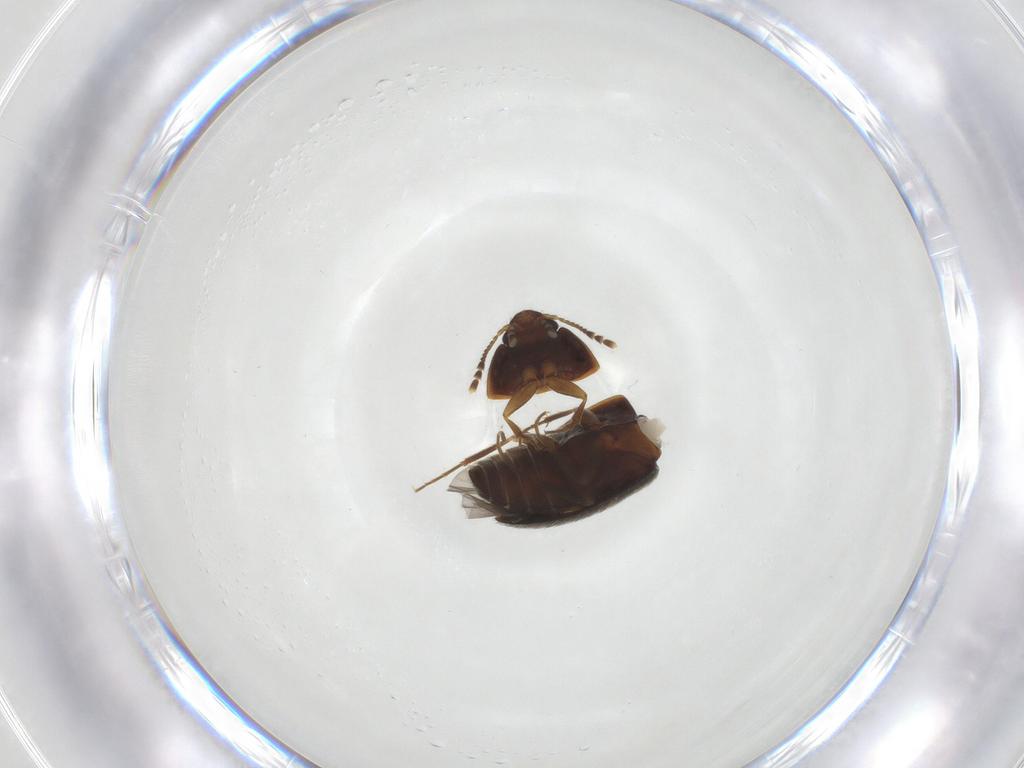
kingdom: Animalia
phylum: Arthropoda
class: Insecta
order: Coleoptera
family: Mycetophagidae
